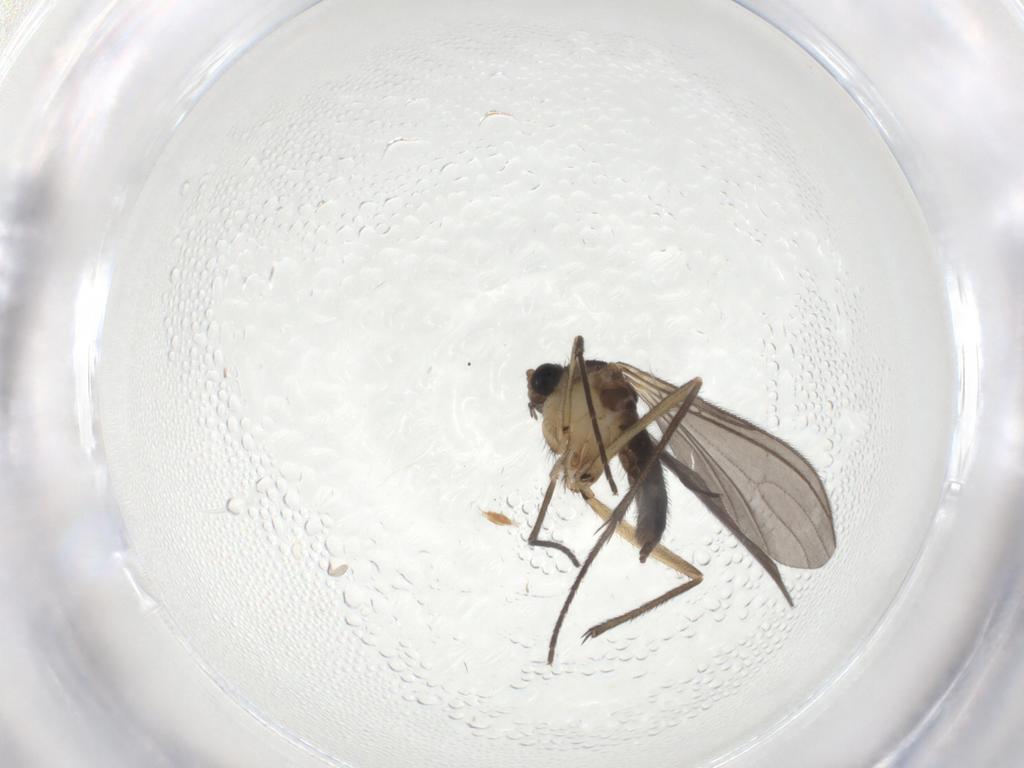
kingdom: Animalia
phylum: Arthropoda
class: Insecta
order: Diptera
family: Sciaridae
